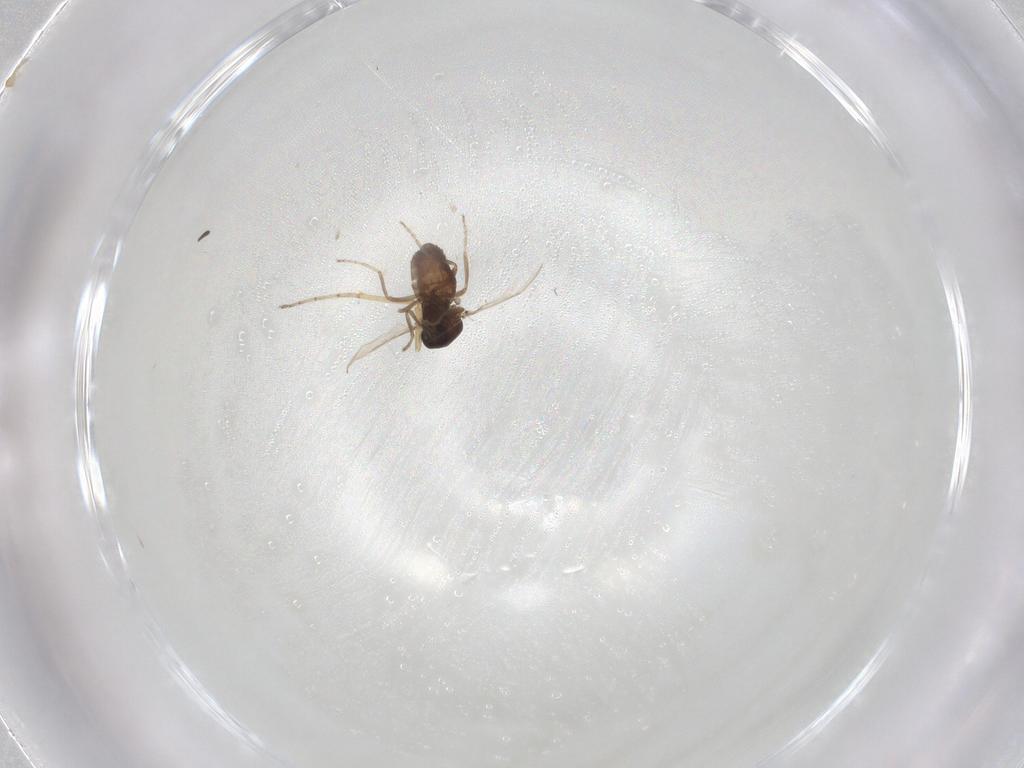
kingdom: Animalia
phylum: Arthropoda
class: Insecta
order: Diptera
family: Ceratopogonidae
